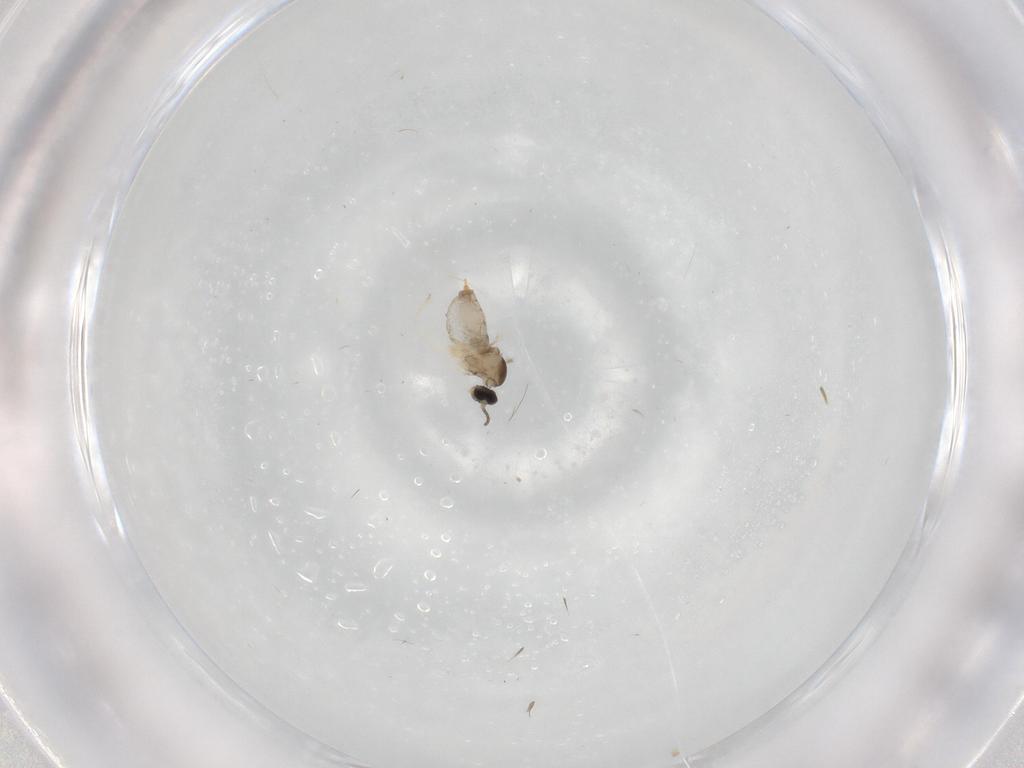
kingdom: Animalia
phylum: Arthropoda
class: Insecta
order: Diptera
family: Cecidomyiidae
